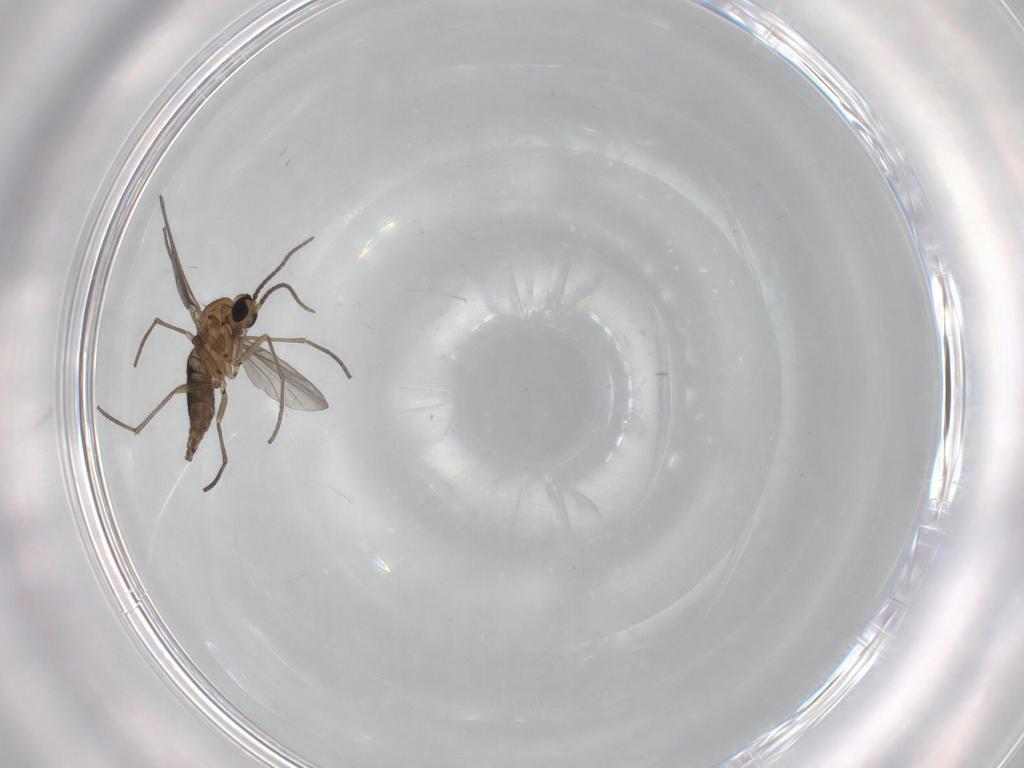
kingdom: Animalia
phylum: Arthropoda
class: Insecta
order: Diptera
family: Sciaridae
